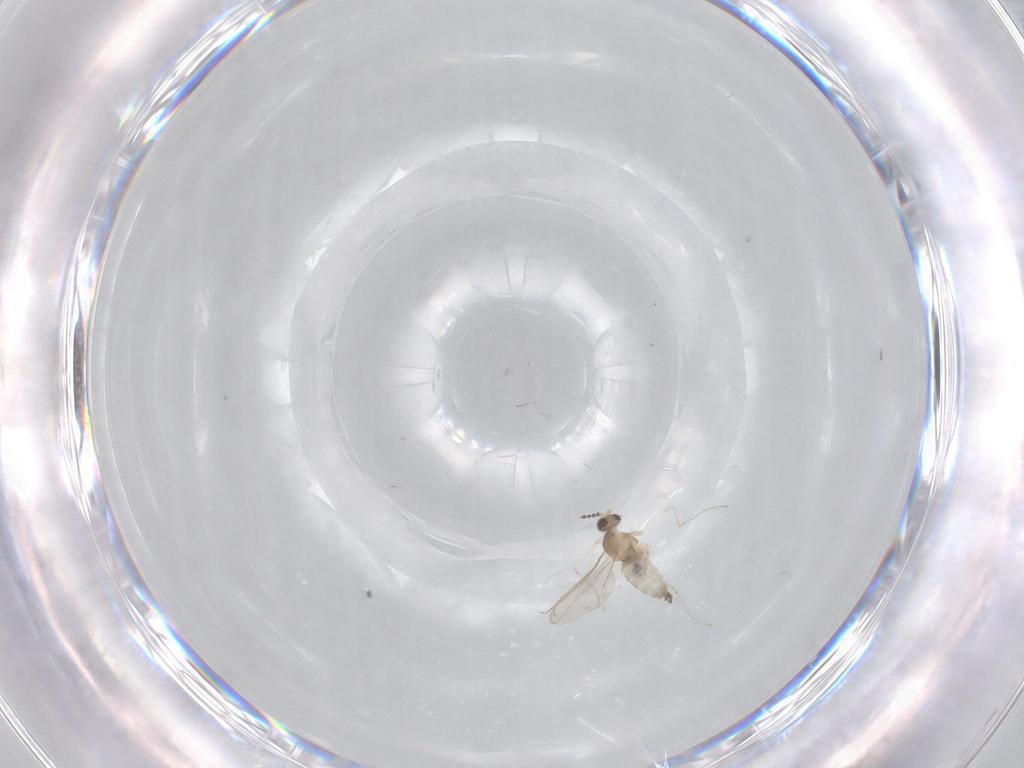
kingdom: Animalia
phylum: Arthropoda
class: Insecta
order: Diptera
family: Cecidomyiidae
